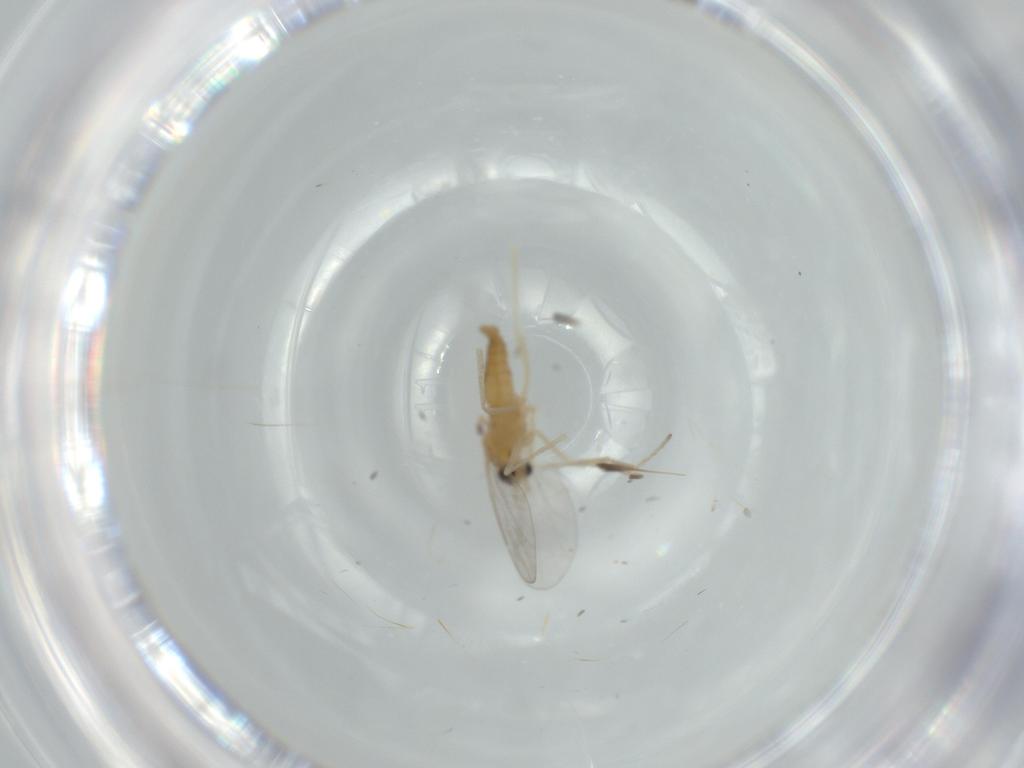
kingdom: Animalia
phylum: Arthropoda
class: Insecta
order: Diptera
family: Cecidomyiidae
